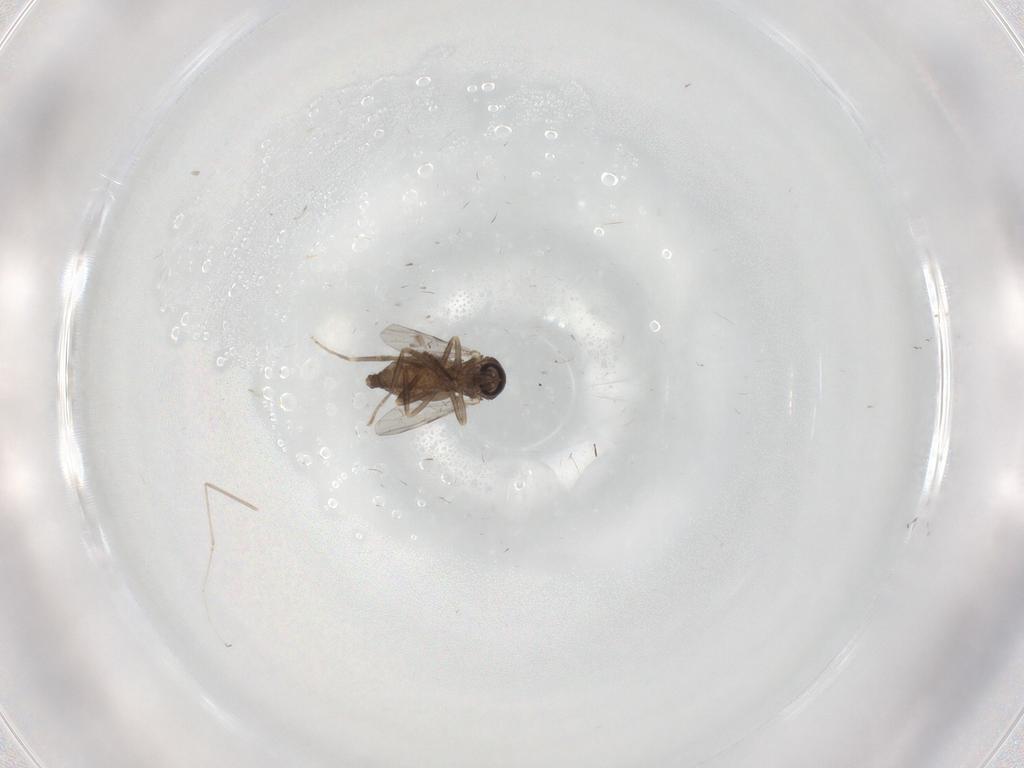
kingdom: Animalia
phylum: Arthropoda
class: Insecta
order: Diptera
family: Ceratopogonidae
